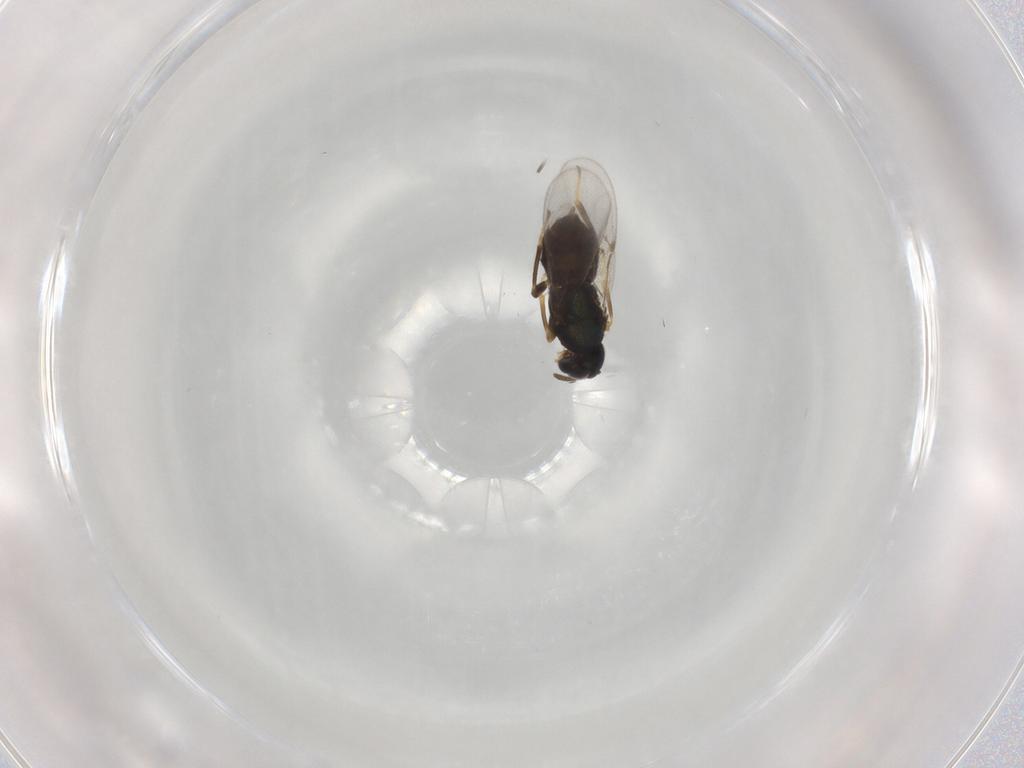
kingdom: Animalia
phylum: Arthropoda
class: Insecta
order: Hymenoptera
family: Encyrtidae
